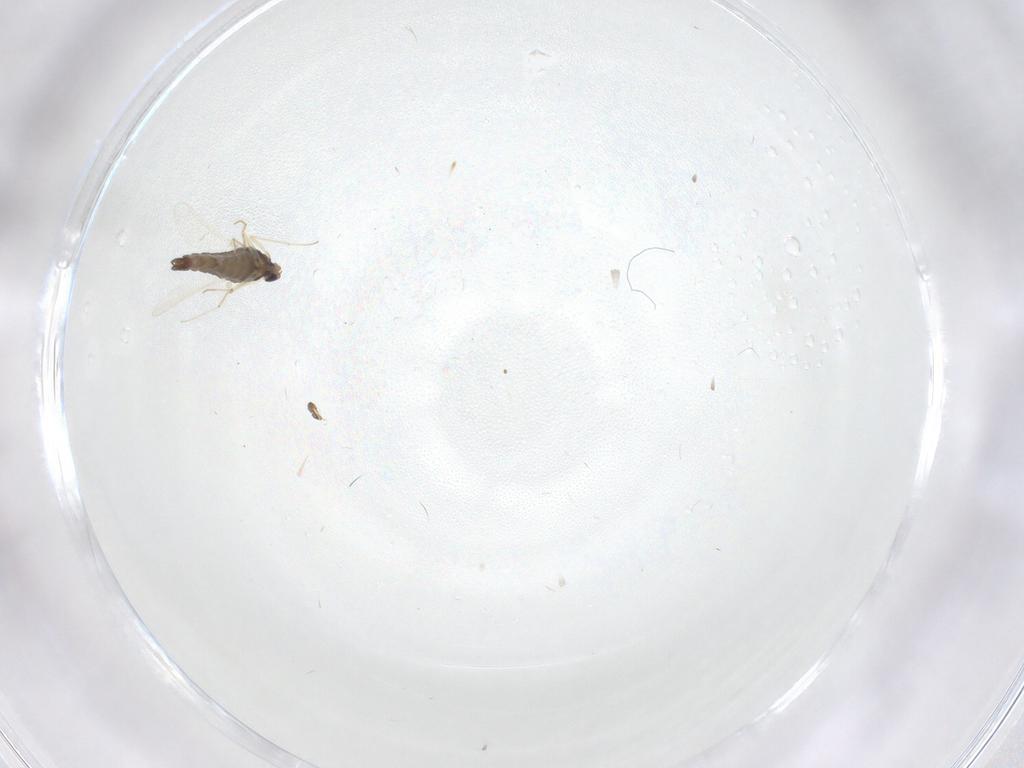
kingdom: Animalia
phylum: Arthropoda
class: Insecta
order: Diptera
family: Chironomidae
